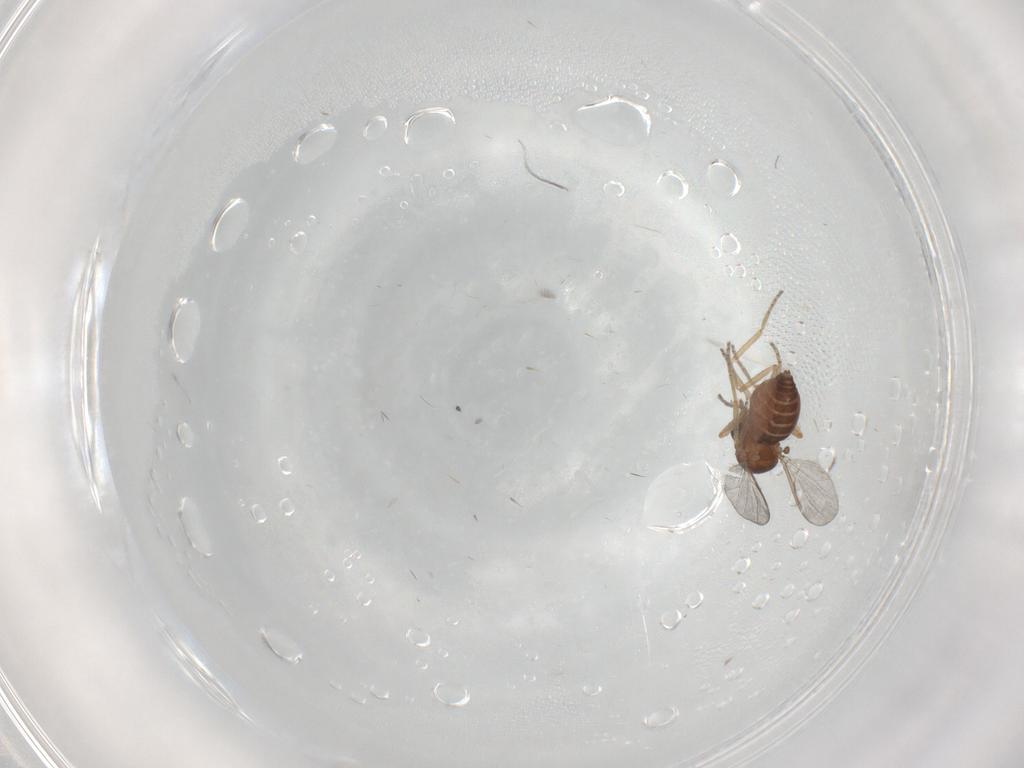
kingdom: Animalia
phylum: Arthropoda
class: Insecta
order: Diptera
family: Ceratopogonidae
